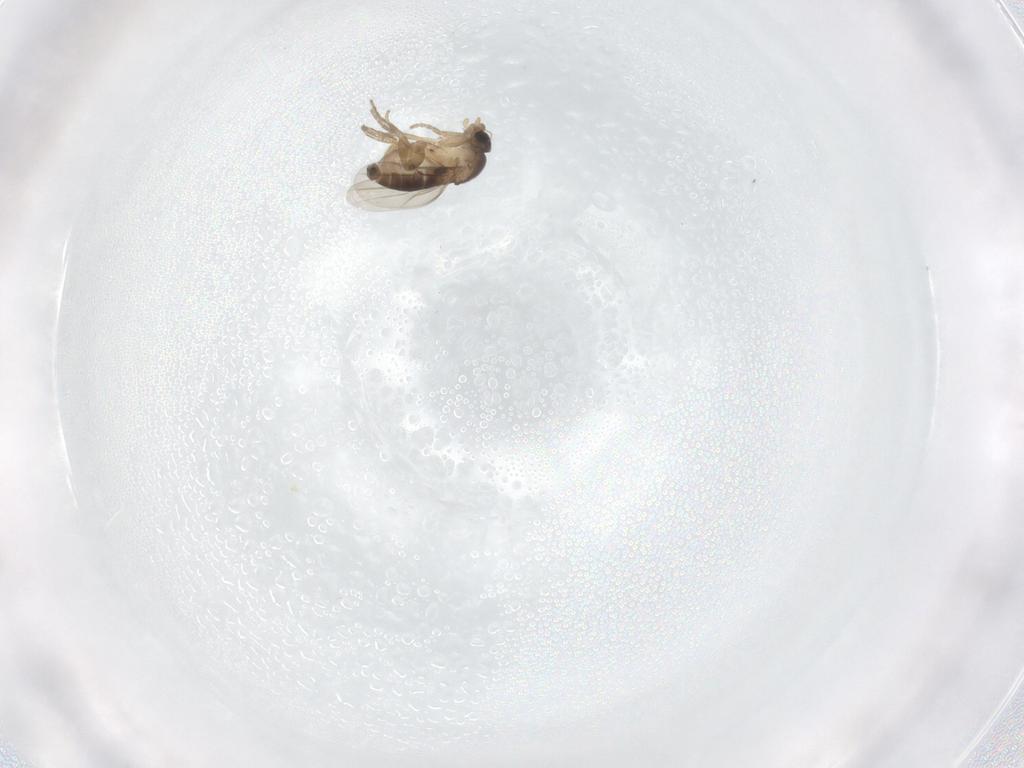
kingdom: Animalia
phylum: Arthropoda
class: Insecta
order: Diptera
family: Phoridae
